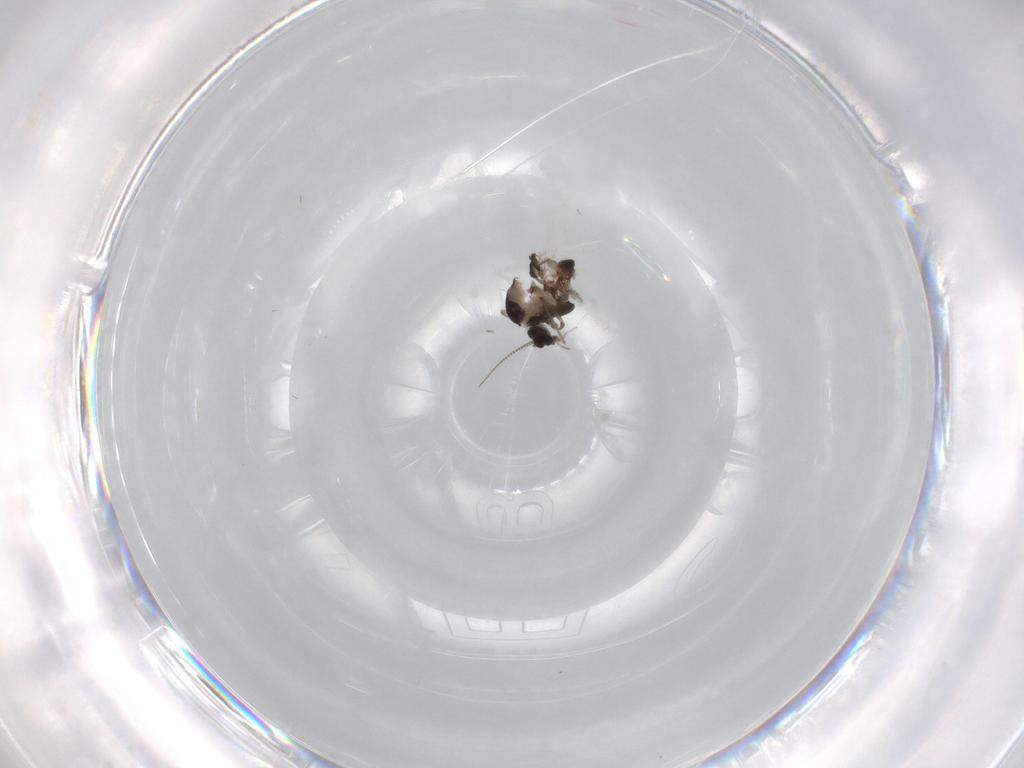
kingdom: Animalia
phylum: Arthropoda
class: Insecta
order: Diptera
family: Chironomidae
